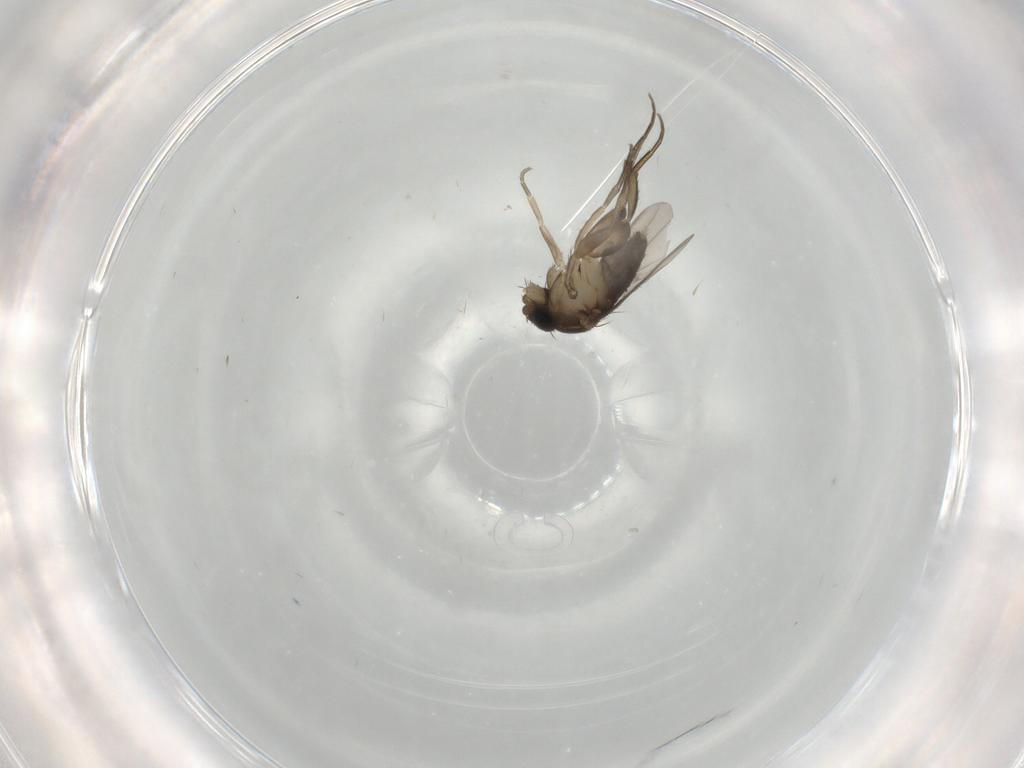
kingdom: Animalia
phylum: Arthropoda
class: Insecta
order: Diptera
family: Phoridae
